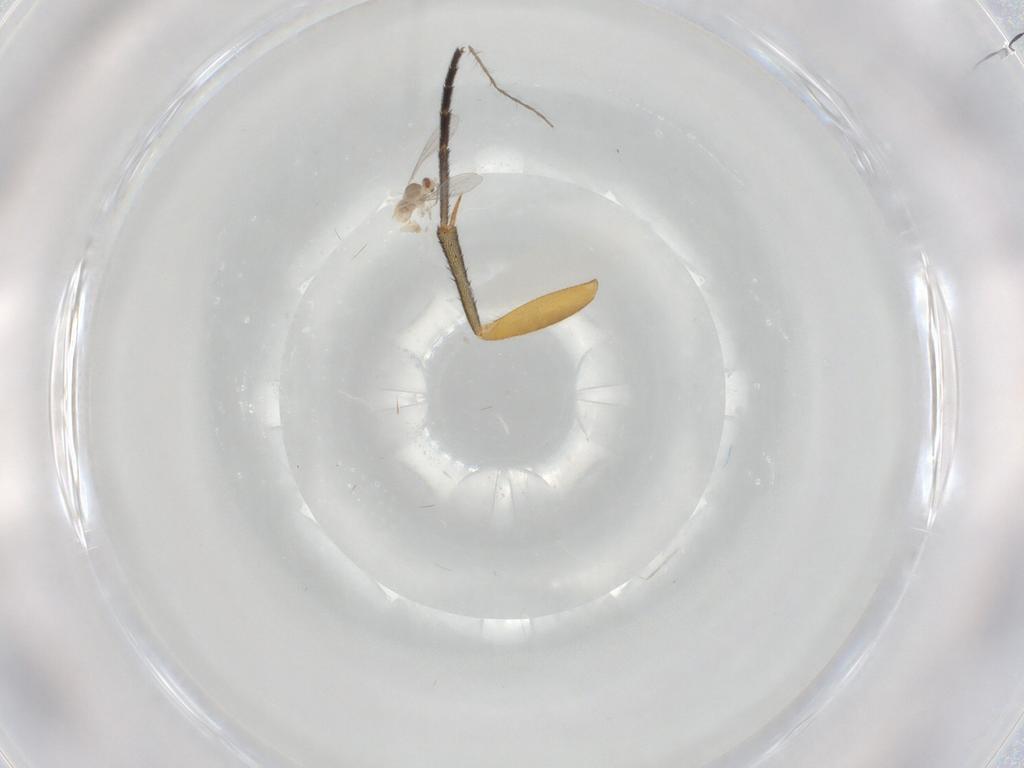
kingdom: Animalia
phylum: Arthropoda
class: Insecta
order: Diptera
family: Corethrellidae
